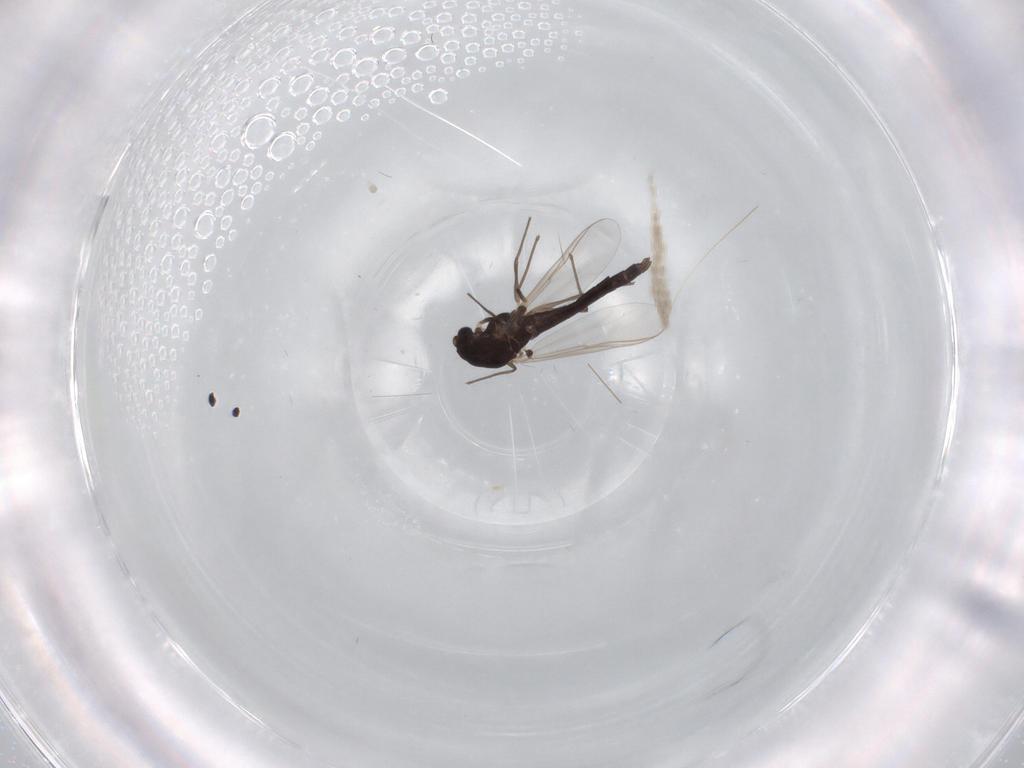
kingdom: Animalia
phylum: Arthropoda
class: Insecta
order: Diptera
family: Chironomidae
